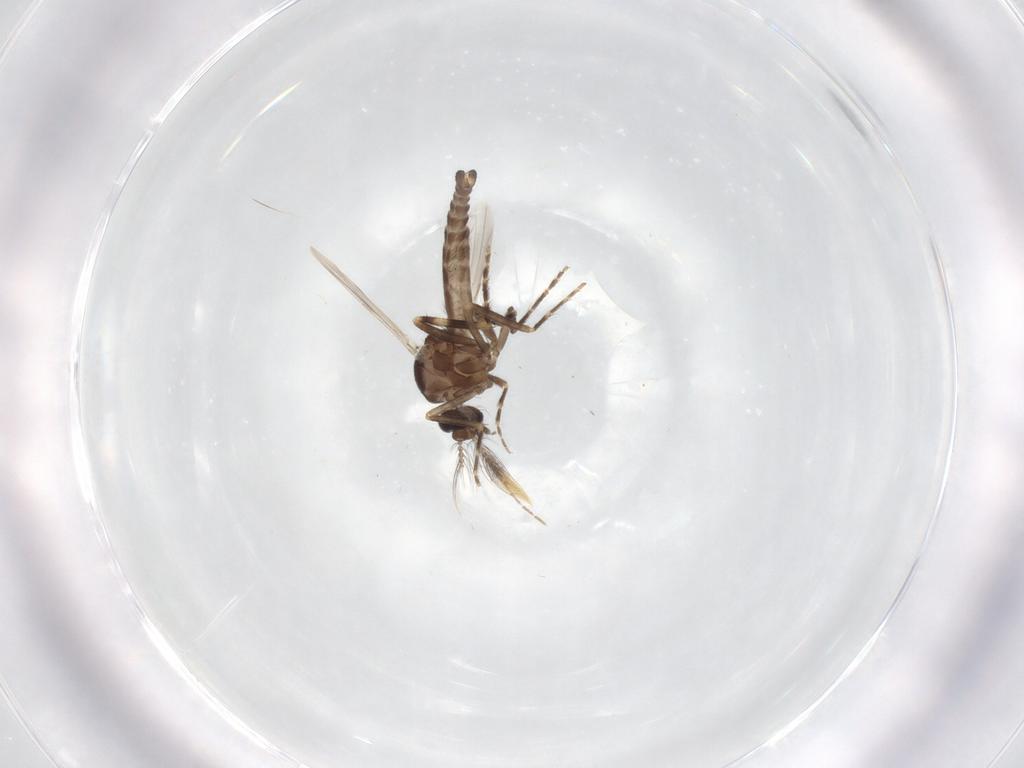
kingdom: Animalia
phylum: Arthropoda
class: Insecta
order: Diptera
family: Ceratopogonidae
